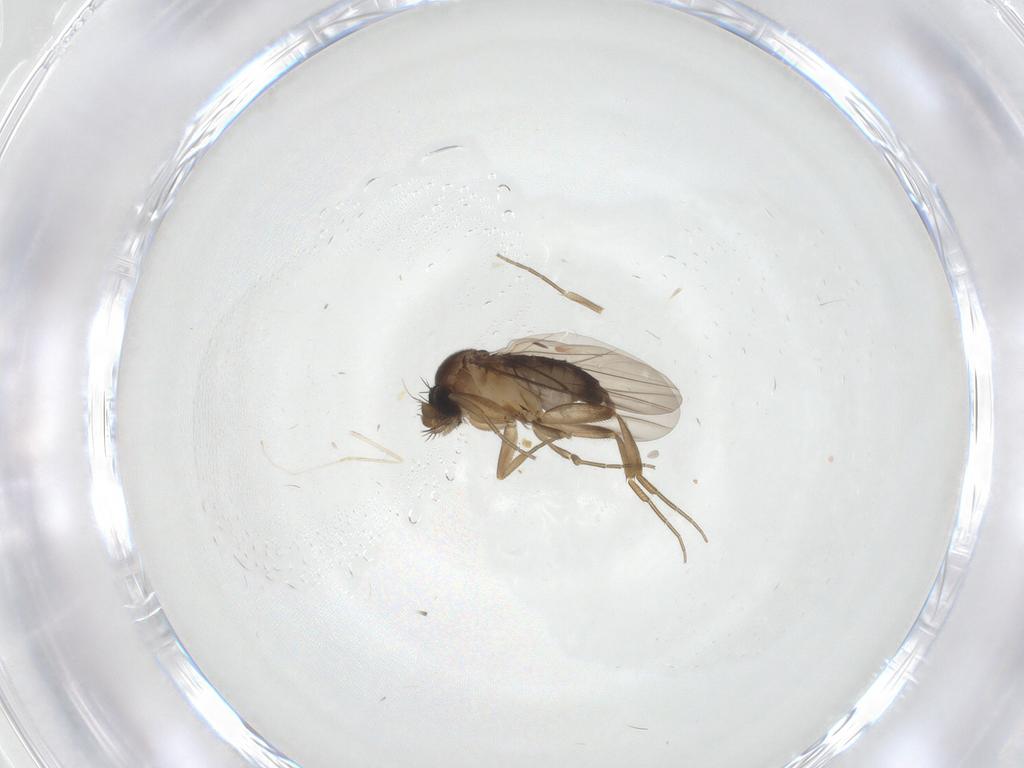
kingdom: Animalia
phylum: Arthropoda
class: Insecta
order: Diptera
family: Phoridae
